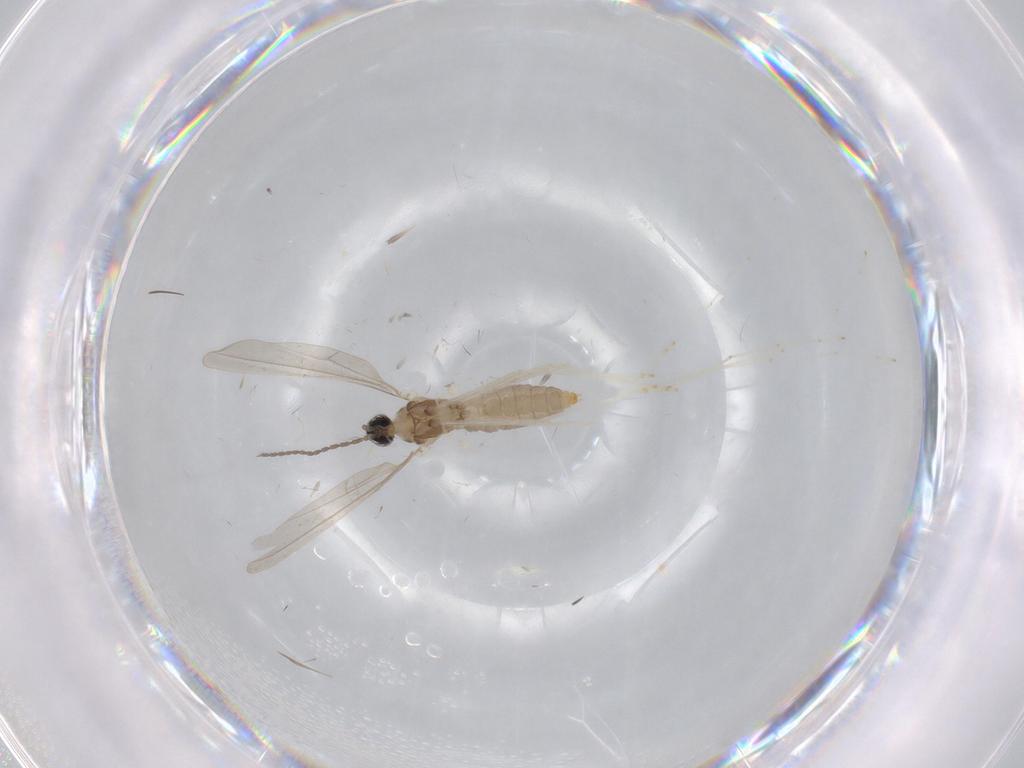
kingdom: Animalia
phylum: Arthropoda
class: Insecta
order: Diptera
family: Cecidomyiidae
